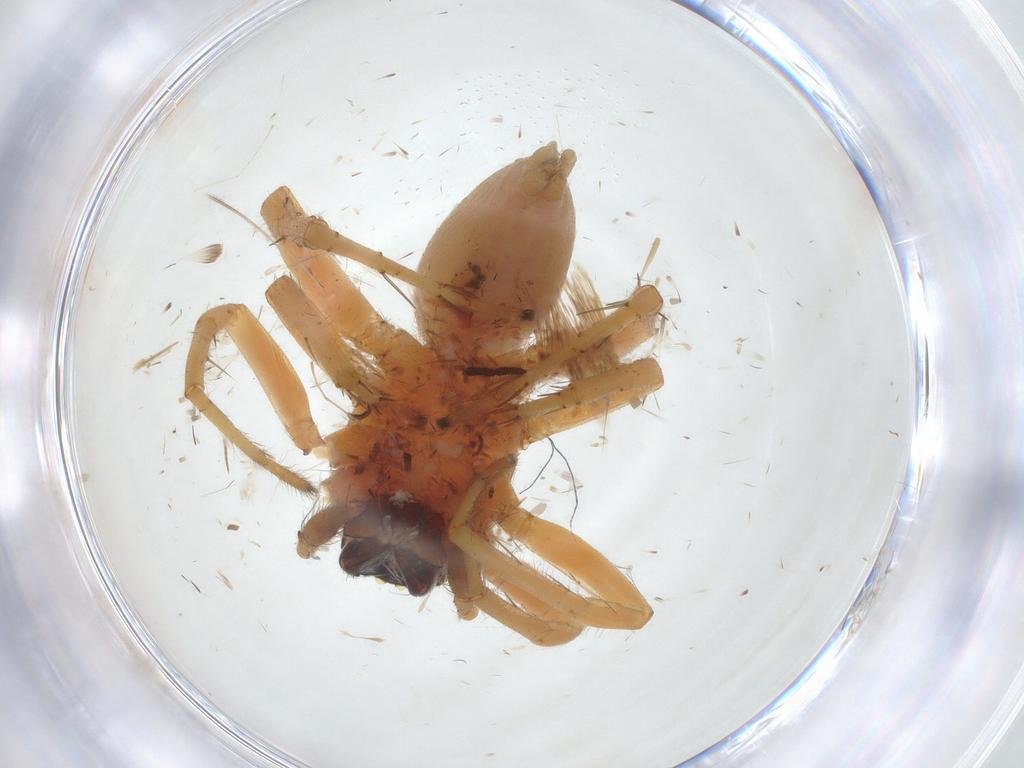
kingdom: Animalia
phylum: Arthropoda
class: Arachnida
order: Araneae
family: Clubionidae
